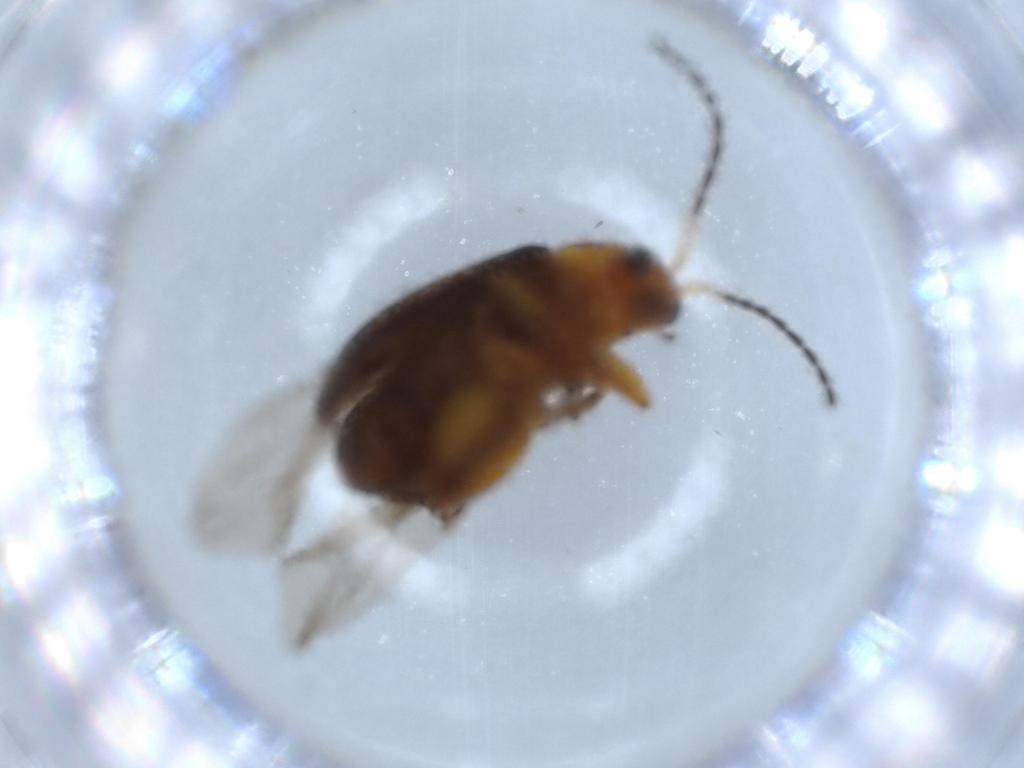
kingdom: Animalia
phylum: Arthropoda
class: Insecta
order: Coleoptera
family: Chrysomelidae
